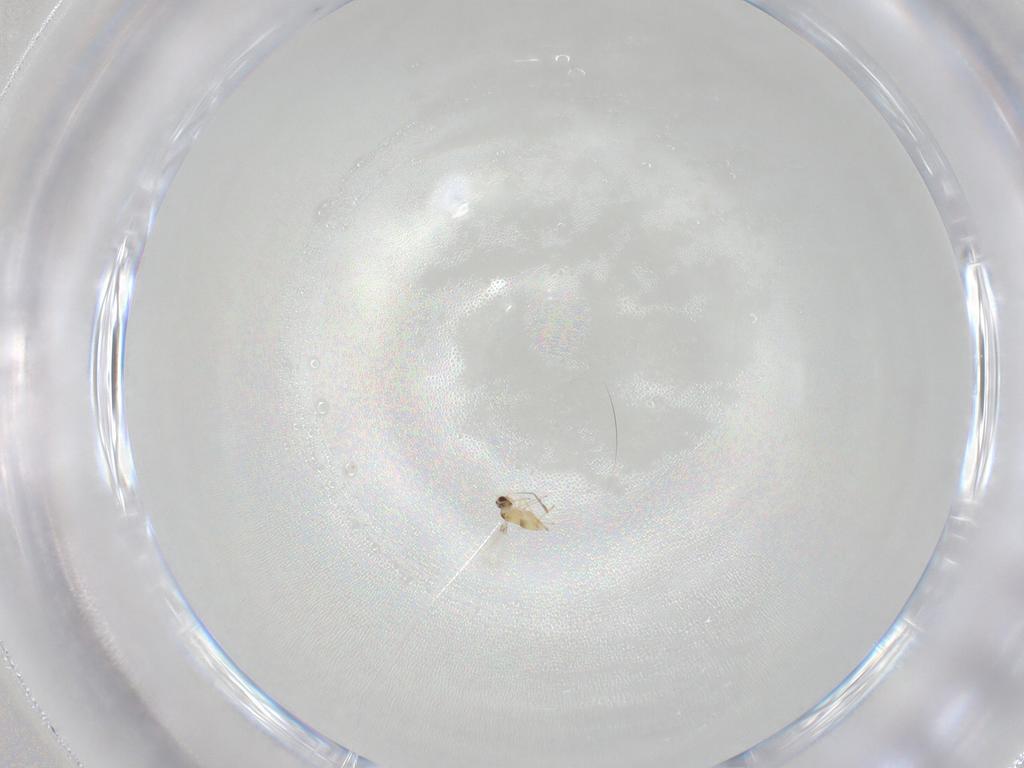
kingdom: Animalia
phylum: Arthropoda
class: Insecta
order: Hymenoptera
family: Mymaridae
